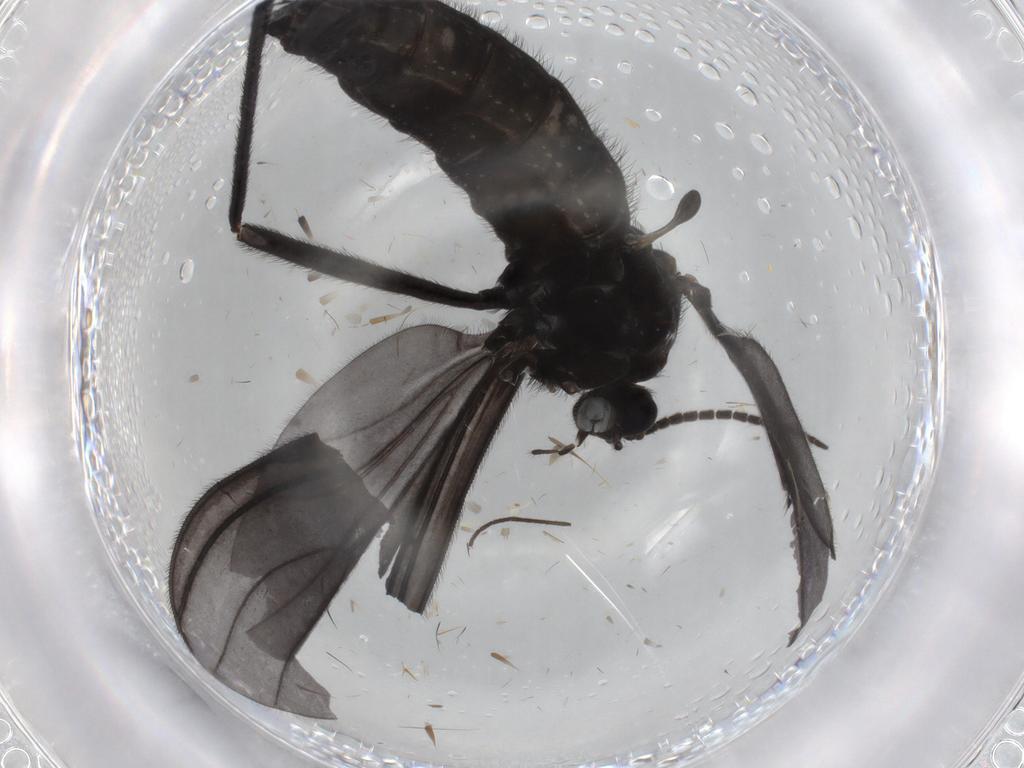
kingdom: Animalia
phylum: Arthropoda
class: Insecta
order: Diptera
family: Sciaridae
